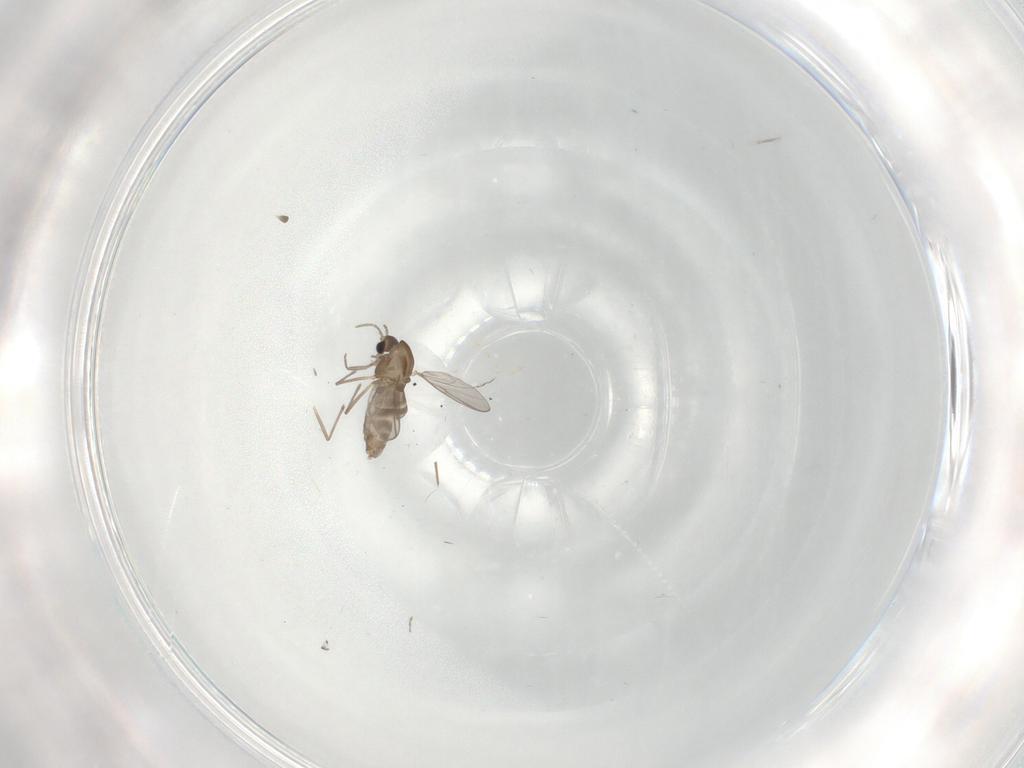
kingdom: Animalia
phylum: Arthropoda
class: Insecta
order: Diptera
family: Chironomidae
